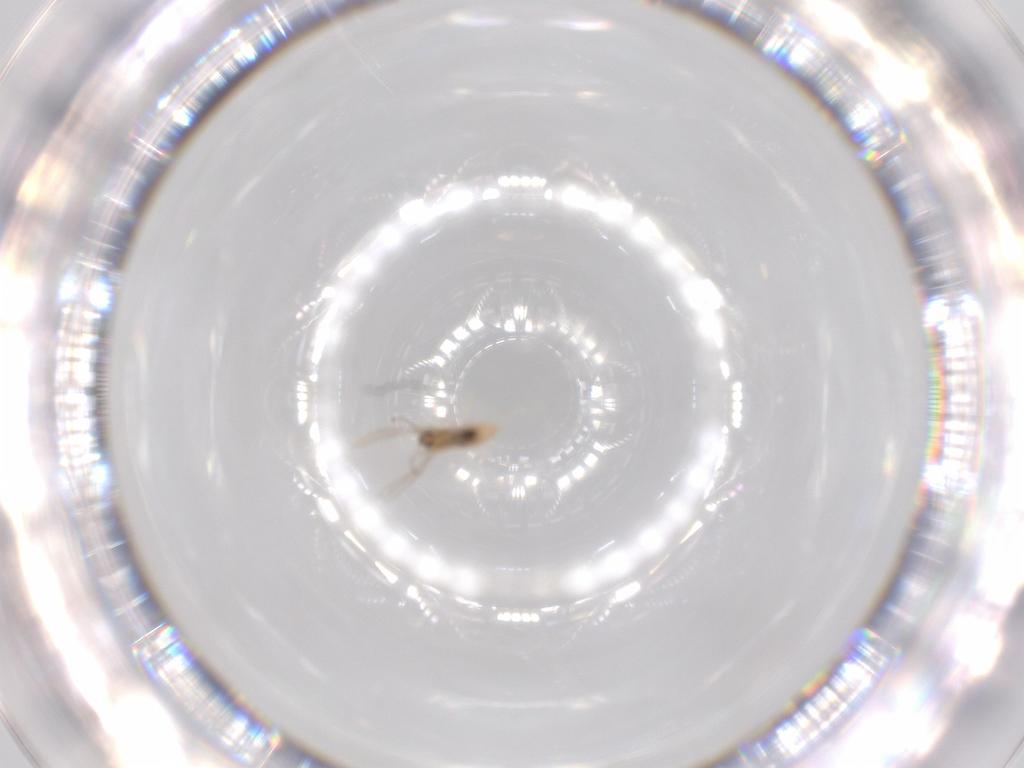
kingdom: Animalia
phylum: Arthropoda
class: Insecta
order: Diptera
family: Cecidomyiidae
